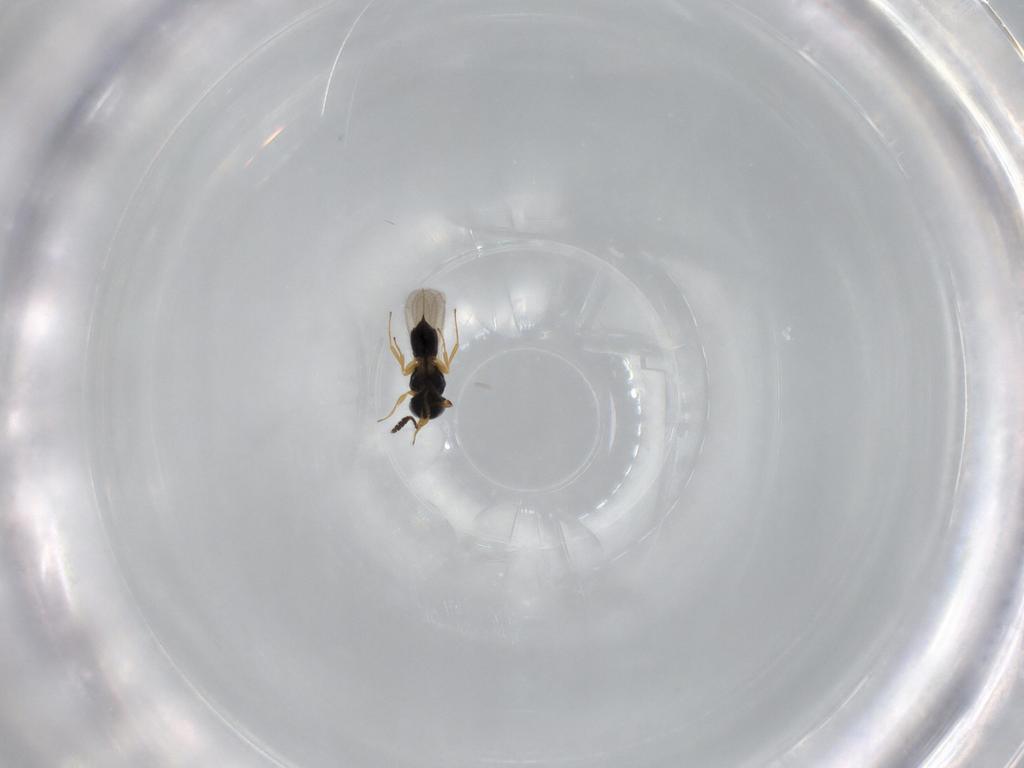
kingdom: Animalia
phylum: Arthropoda
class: Insecta
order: Hymenoptera
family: Scelionidae
